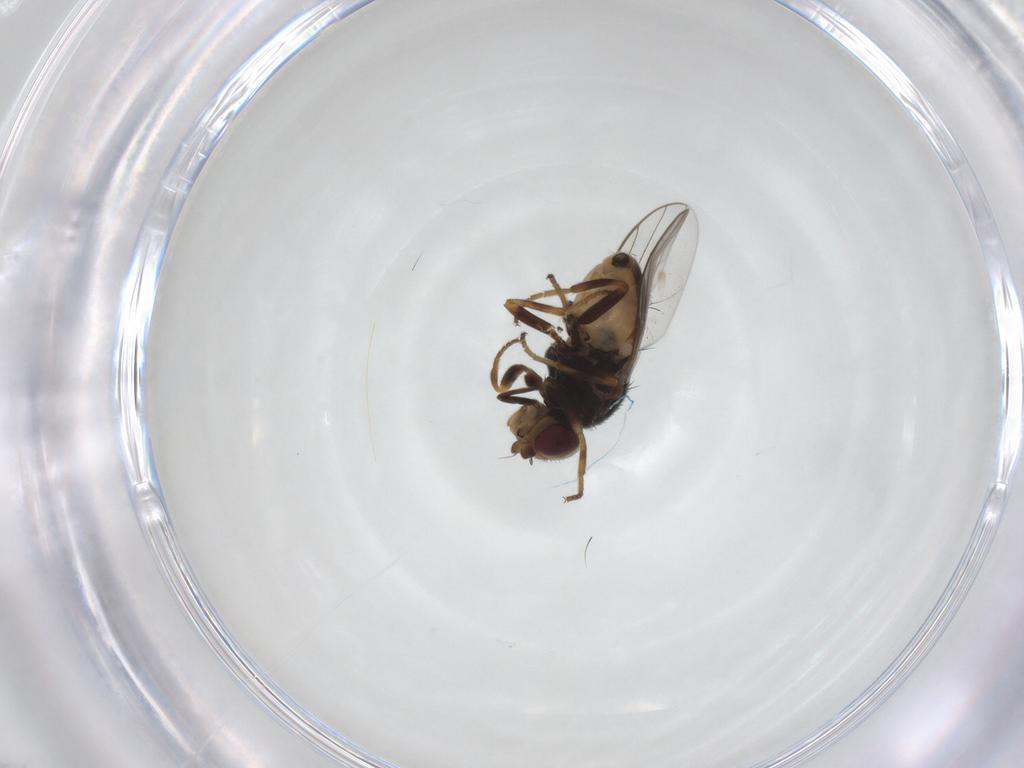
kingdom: Animalia
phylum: Arthropoda
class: Insecta
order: Diptera
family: Chloropidae
